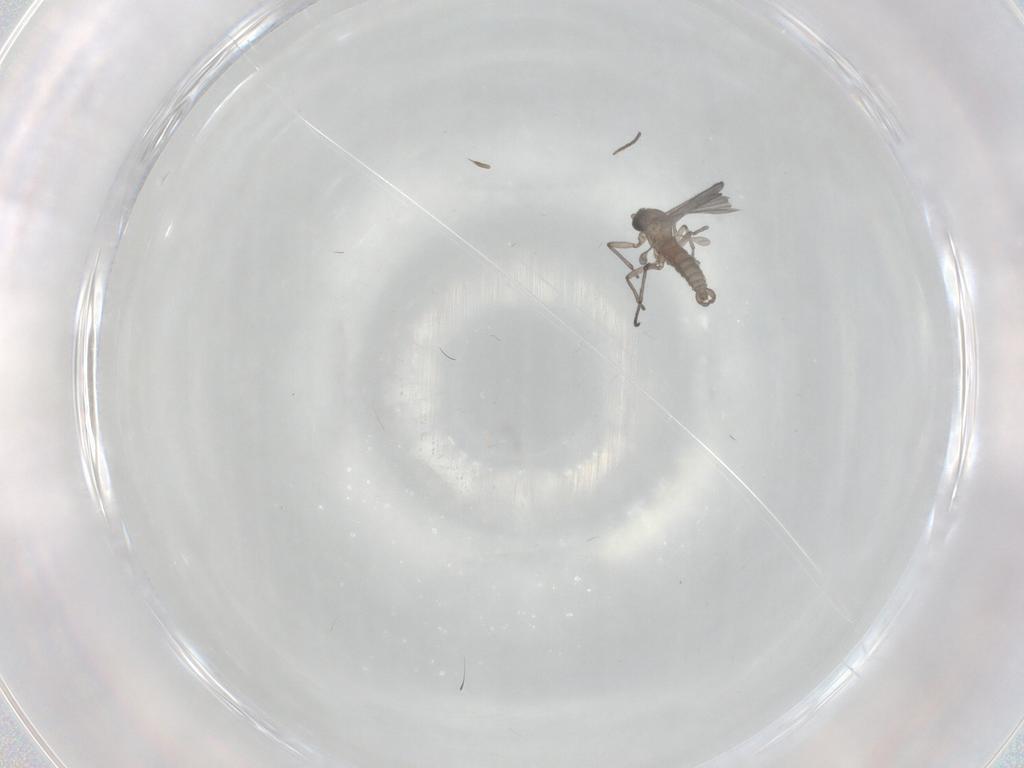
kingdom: Animalia
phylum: Arthropoda
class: Insecta
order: Diptera
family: Sciaridae
